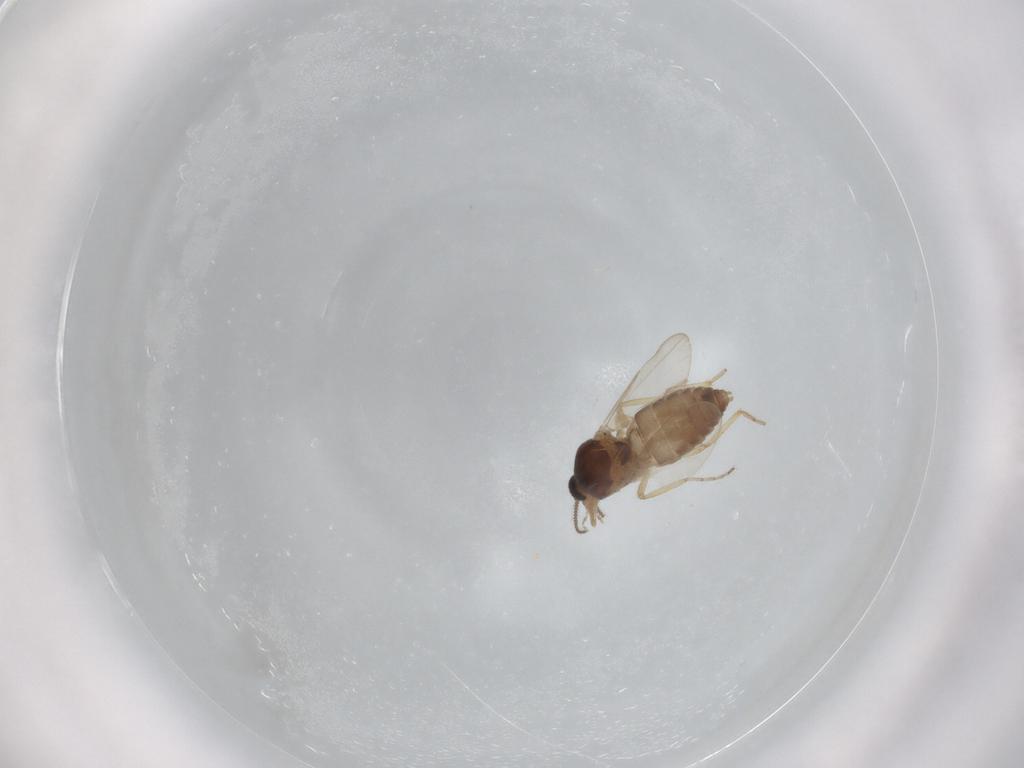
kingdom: Animalia
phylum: Arthropoda
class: Insecta
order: Diptera
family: Ceratopogonidae
